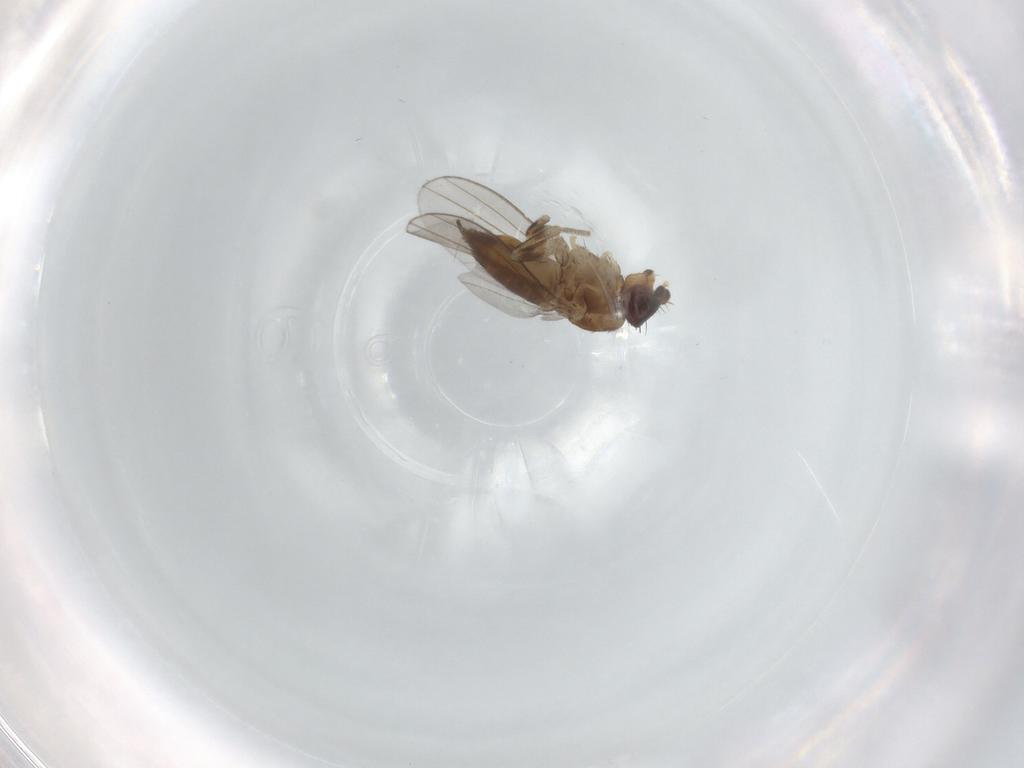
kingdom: Animalia
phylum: Arthropoda
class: Insecta
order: Diptera
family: Milichiidae
